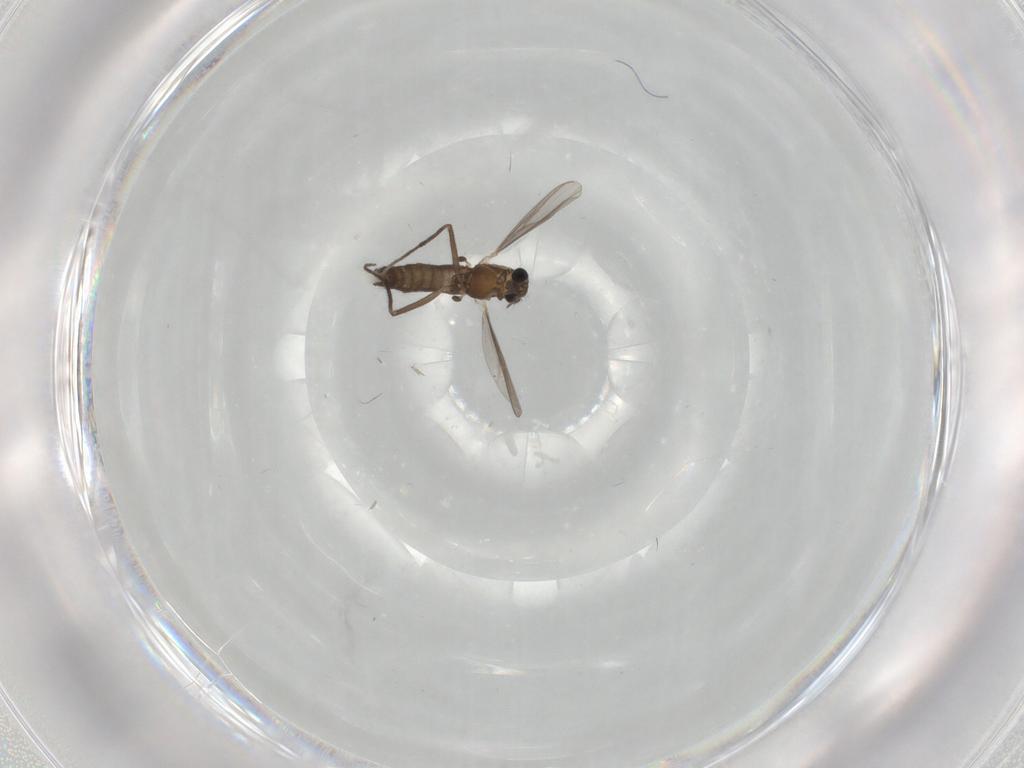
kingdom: Animalia
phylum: Arthropoda
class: Insecta
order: Diptera
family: Chironomidae
